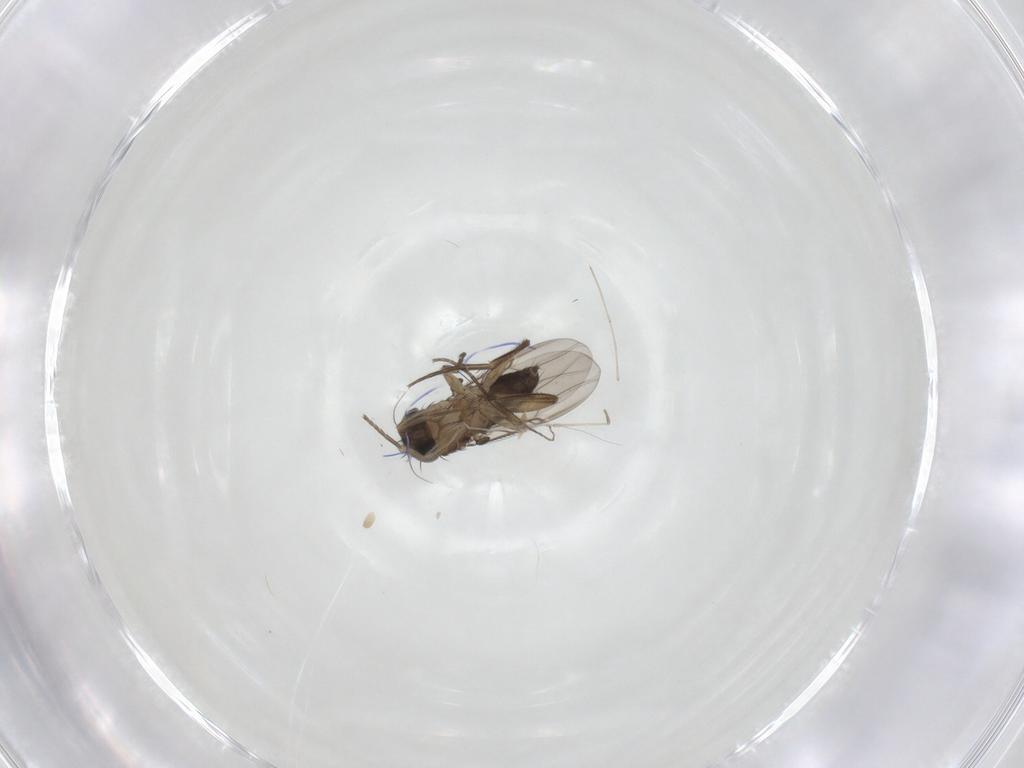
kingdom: Animalia
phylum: Arthropoda
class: Insecta
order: Diptera
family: Phoridae
